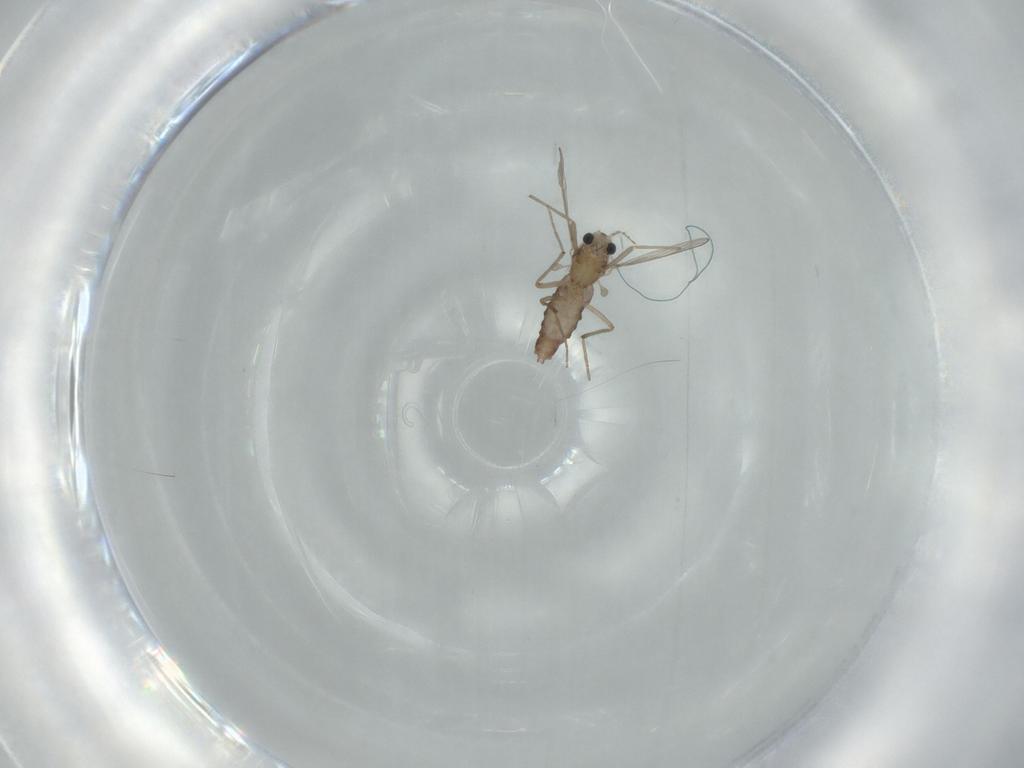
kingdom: Animalia
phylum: Arthropoda
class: Insecta
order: Diptera
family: Chironomidae
